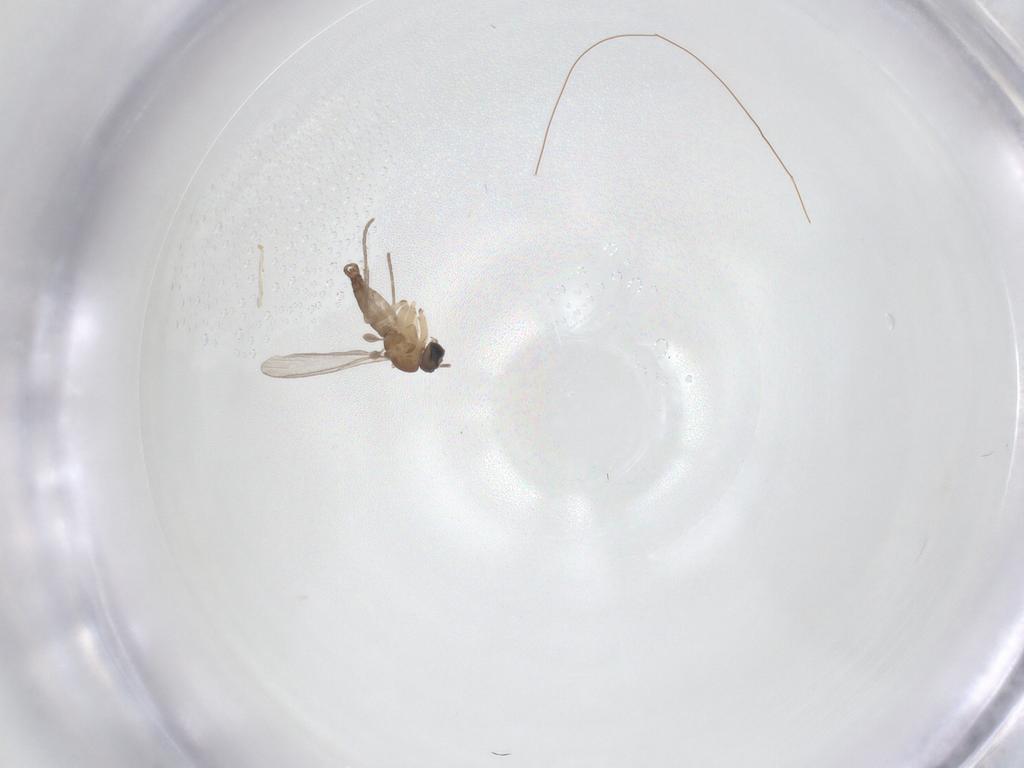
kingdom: Animalia
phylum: Arthropoda
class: Insecta
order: Diptera
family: Sciaridae
